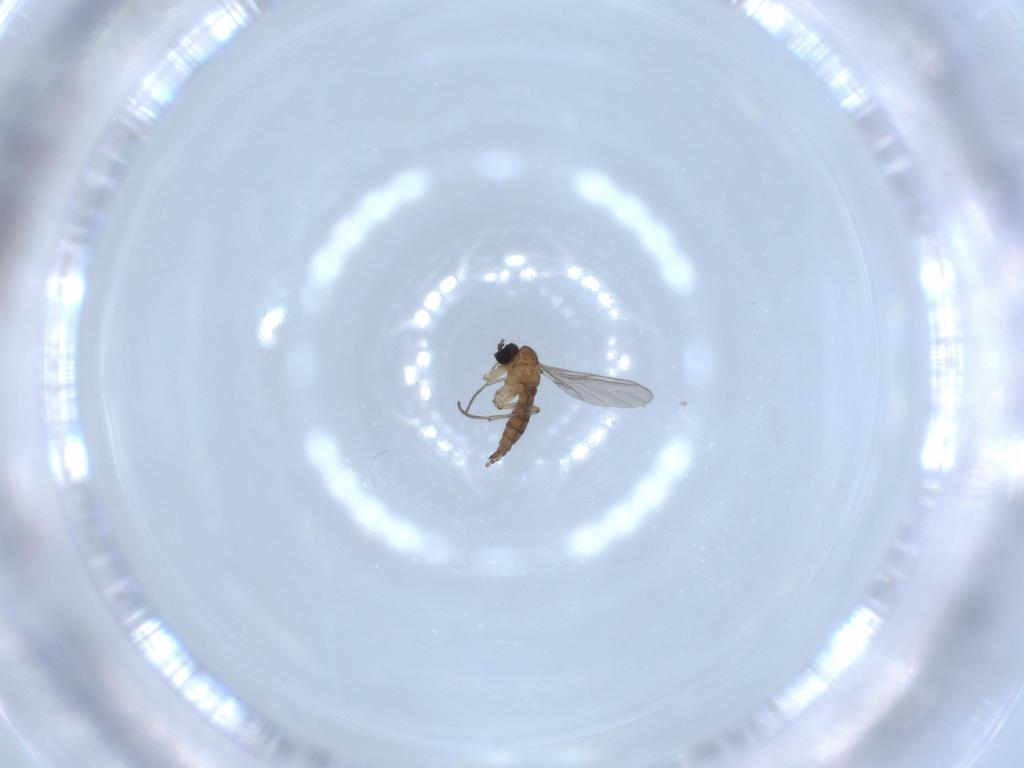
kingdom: Animalia
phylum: Arthropoda
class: Insecta
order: Diptera
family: Sciaridae
